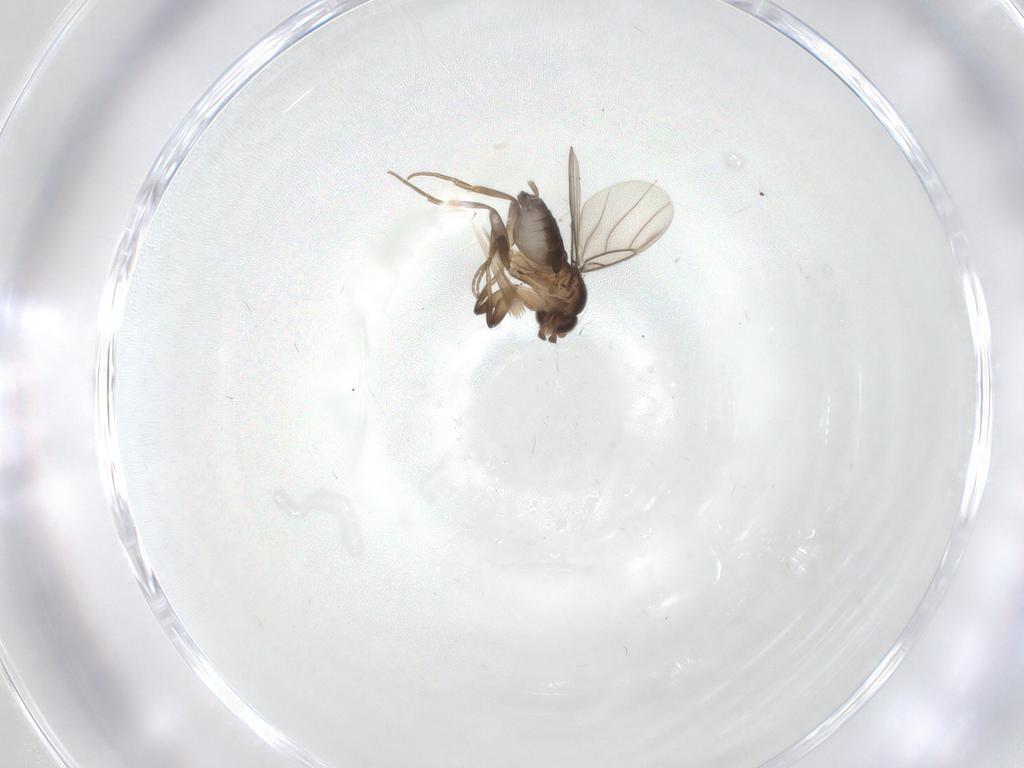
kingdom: Animalia
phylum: Arthropoda
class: Insecta
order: Diptera
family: Phoridae
